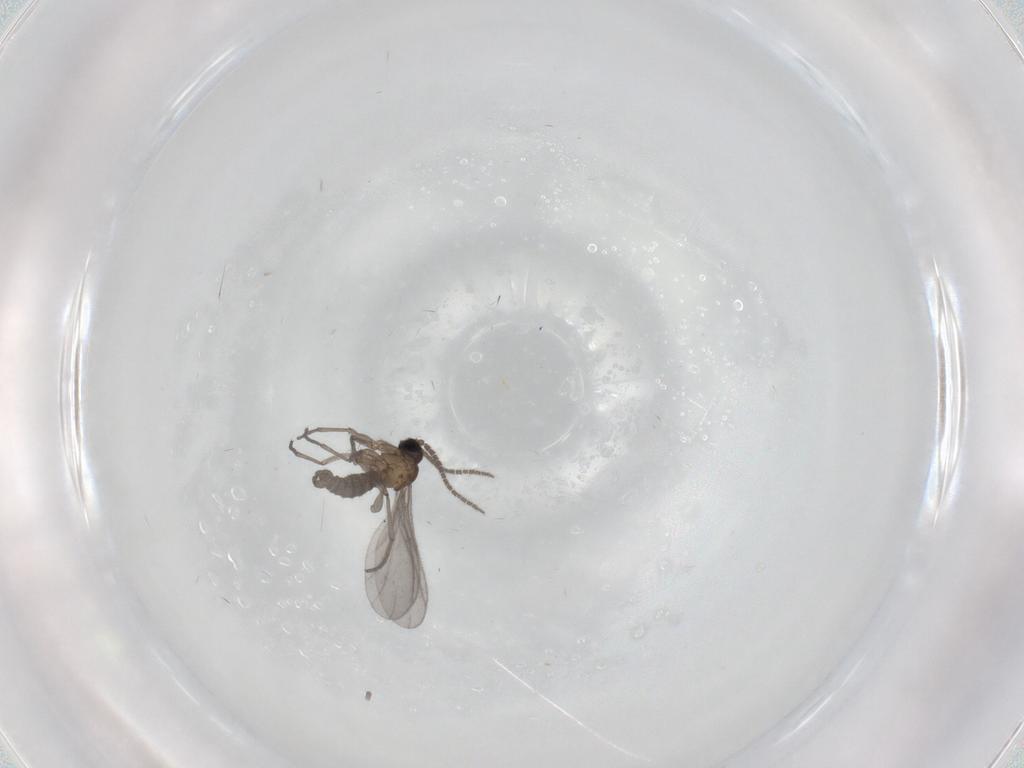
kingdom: Animalia
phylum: Arthropoda
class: Insecta
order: Diptera
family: Sciaridae
